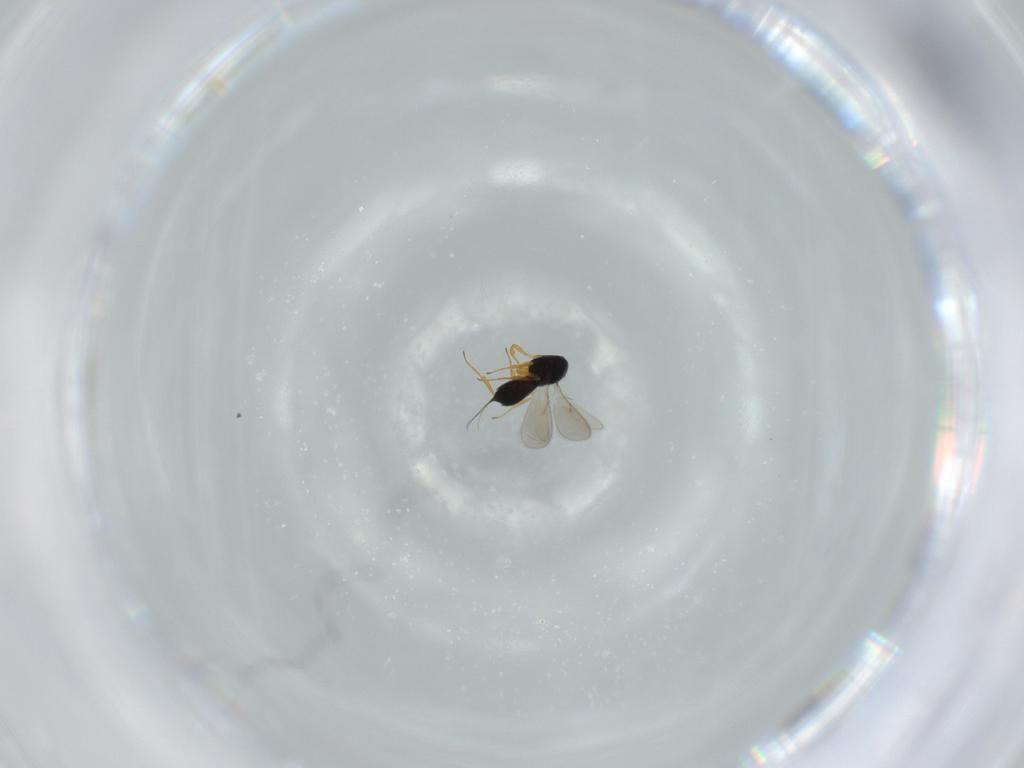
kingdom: Animalia
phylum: Arthropoda
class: Insecta
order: Hymenoptera
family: Scelionidae
